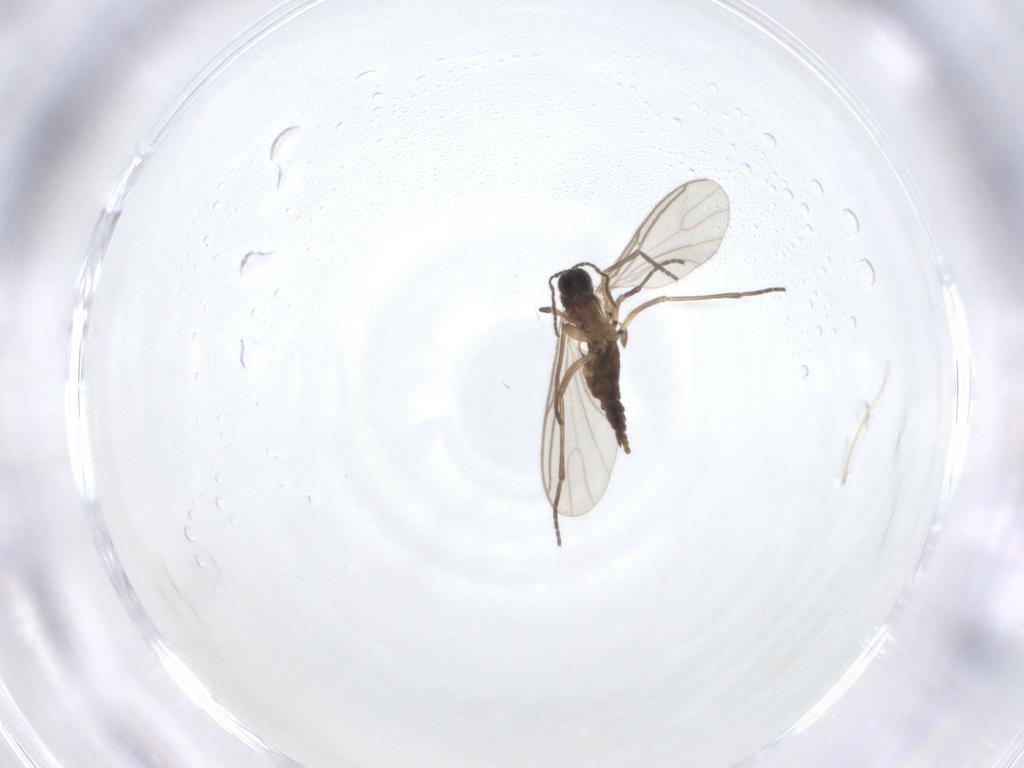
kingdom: Animalia
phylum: Arthropoda
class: Insecta
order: Diptera
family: Sciaridae
